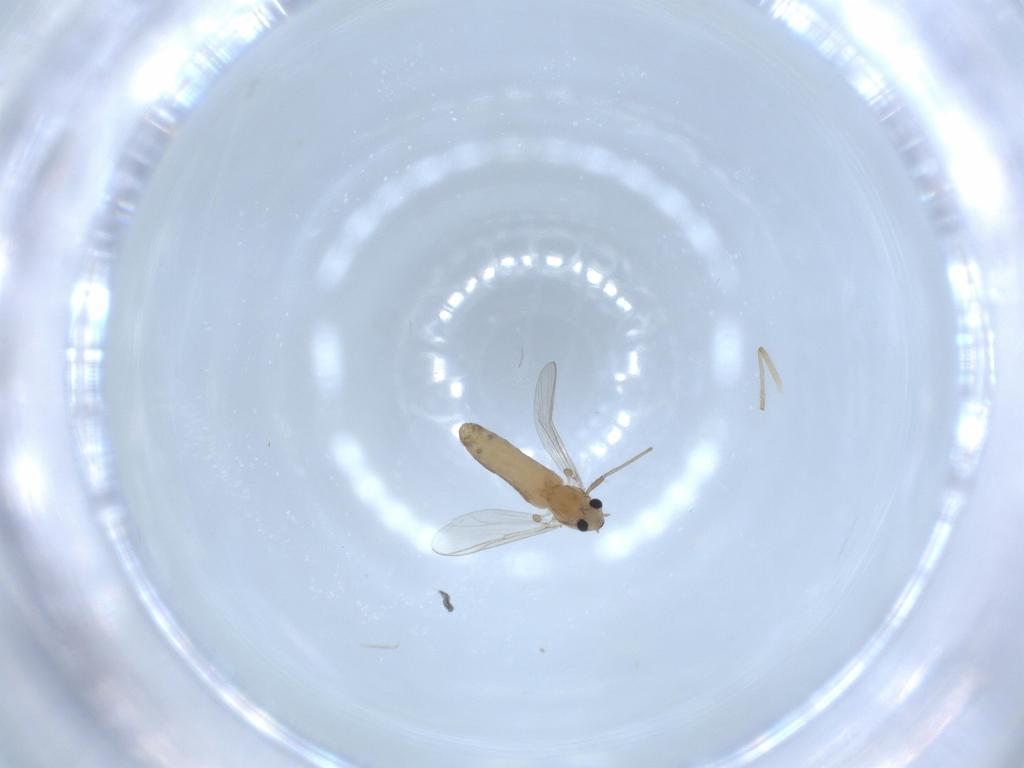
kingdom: Animalia
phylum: Arthropoda
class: Insecta
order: Diptera
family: Chironomidae
